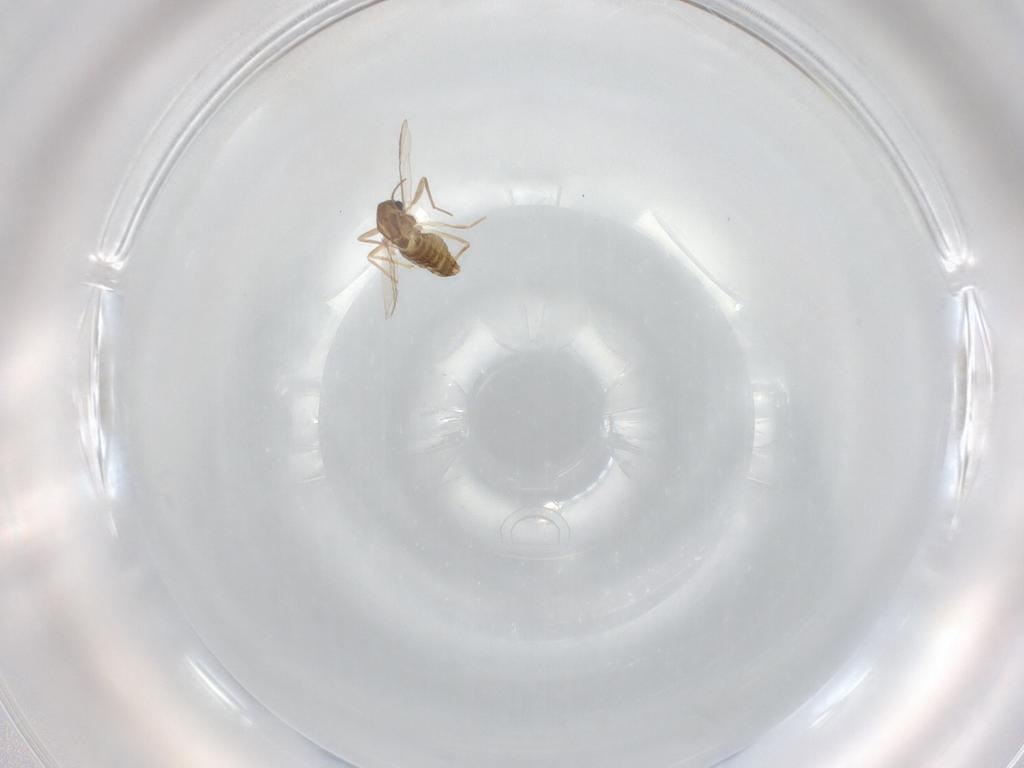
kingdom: Animalia
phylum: Arthropoda
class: Insecta
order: Diptera
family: Chironomidae
